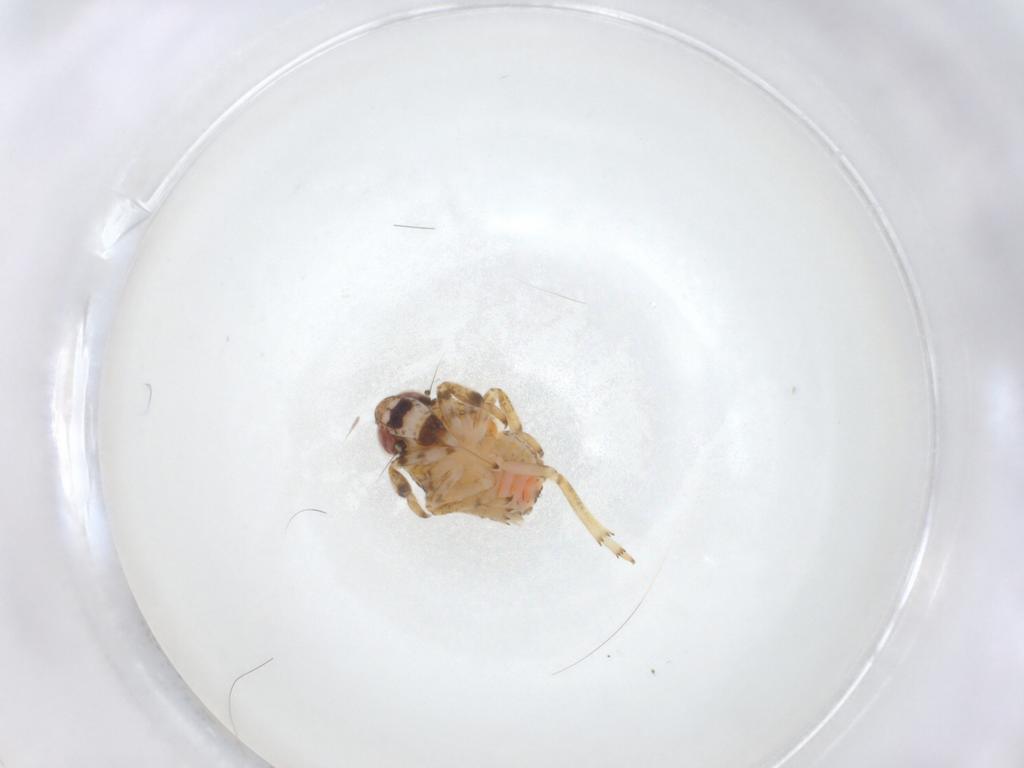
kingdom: Animalia
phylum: Arthropoda
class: Insecta
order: Hemiptera
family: Issidae
